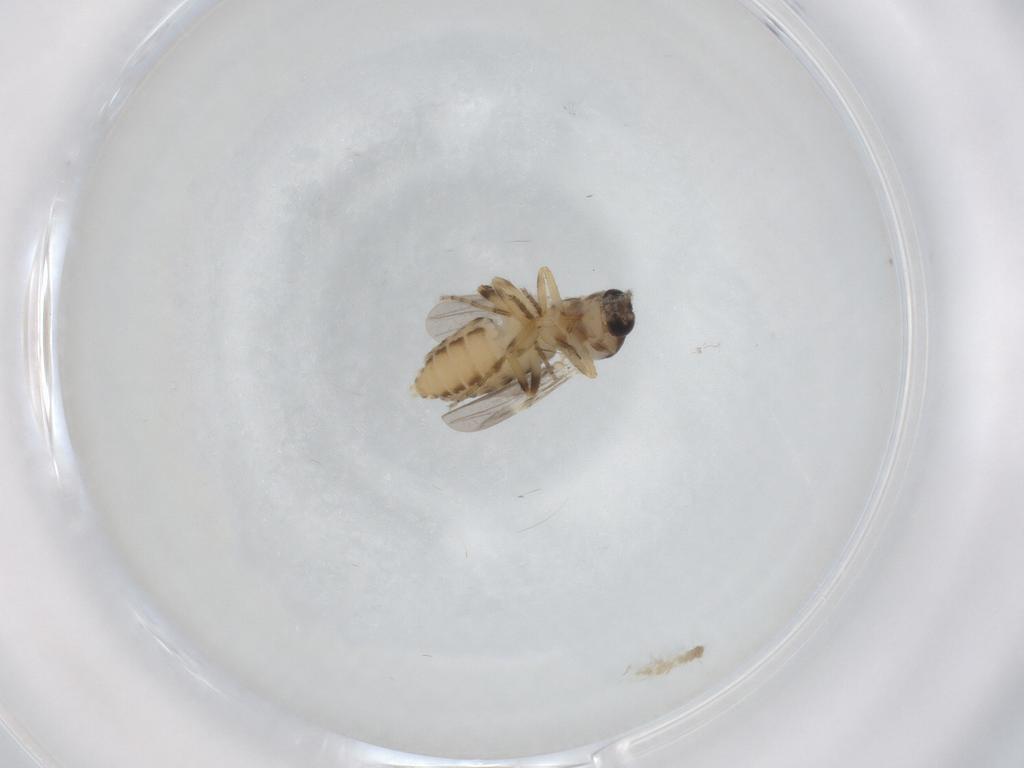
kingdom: Animalia
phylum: Arthropoda
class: Insecta
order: Diptera
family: Ceratopogonidae
